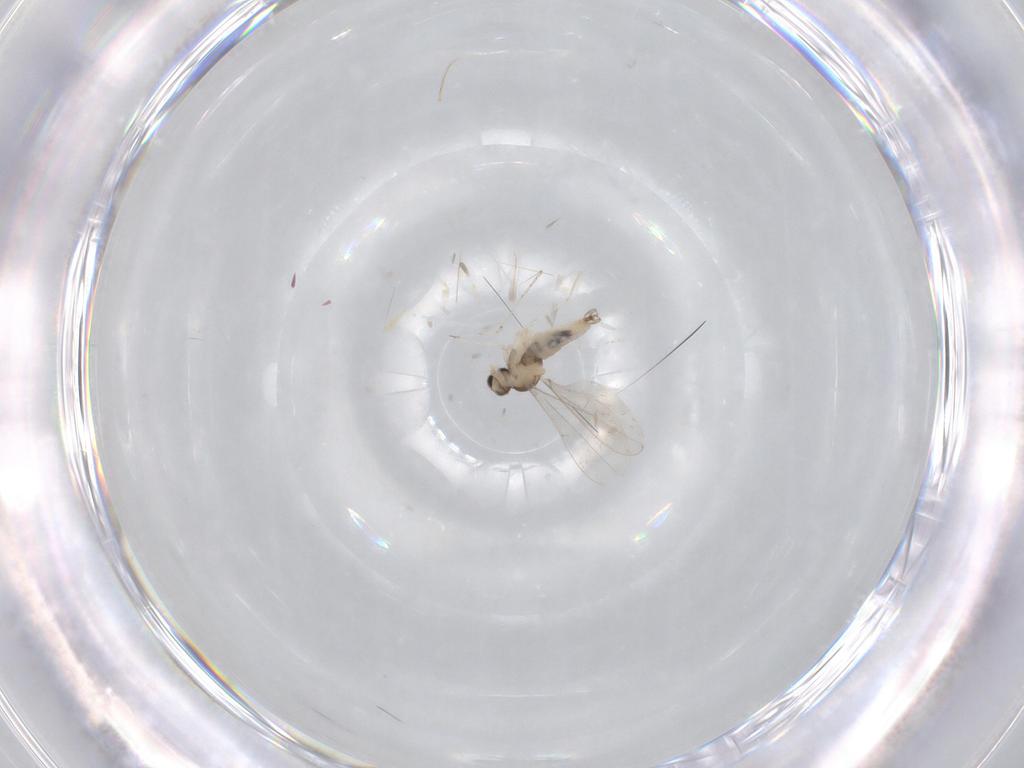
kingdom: Animalia
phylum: Arthropoda
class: Insecta
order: Diptera
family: Cecidomyiidae
